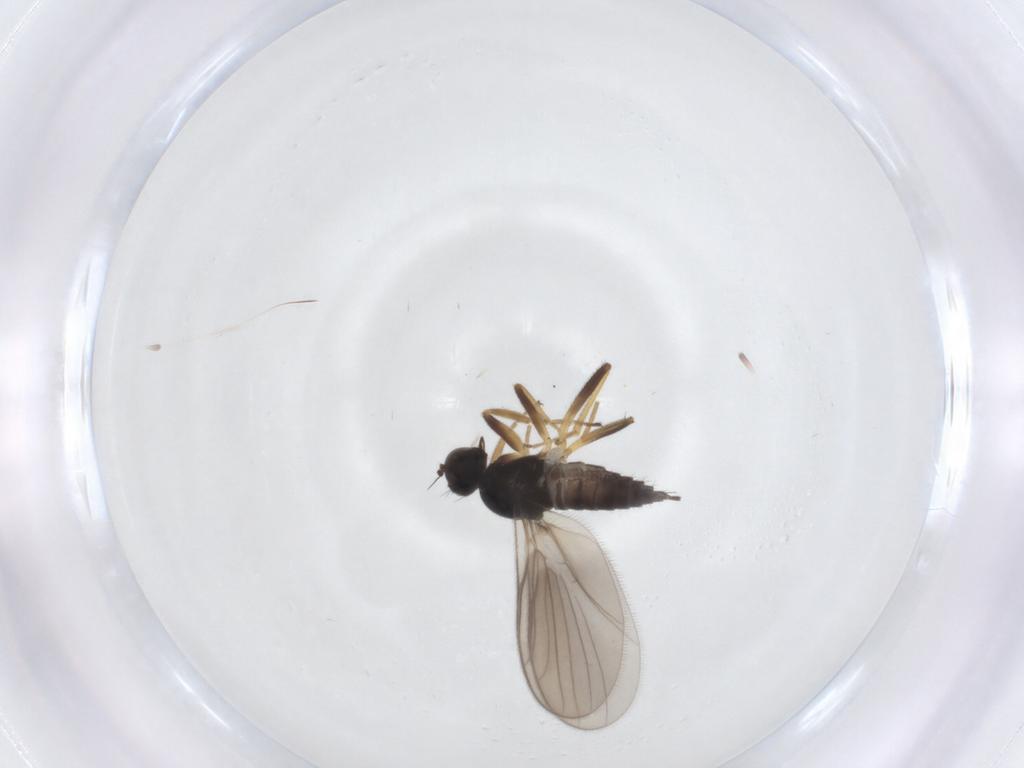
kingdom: Animalia
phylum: Arthropoda
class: Insecta
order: Diptera
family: Hybotidae
